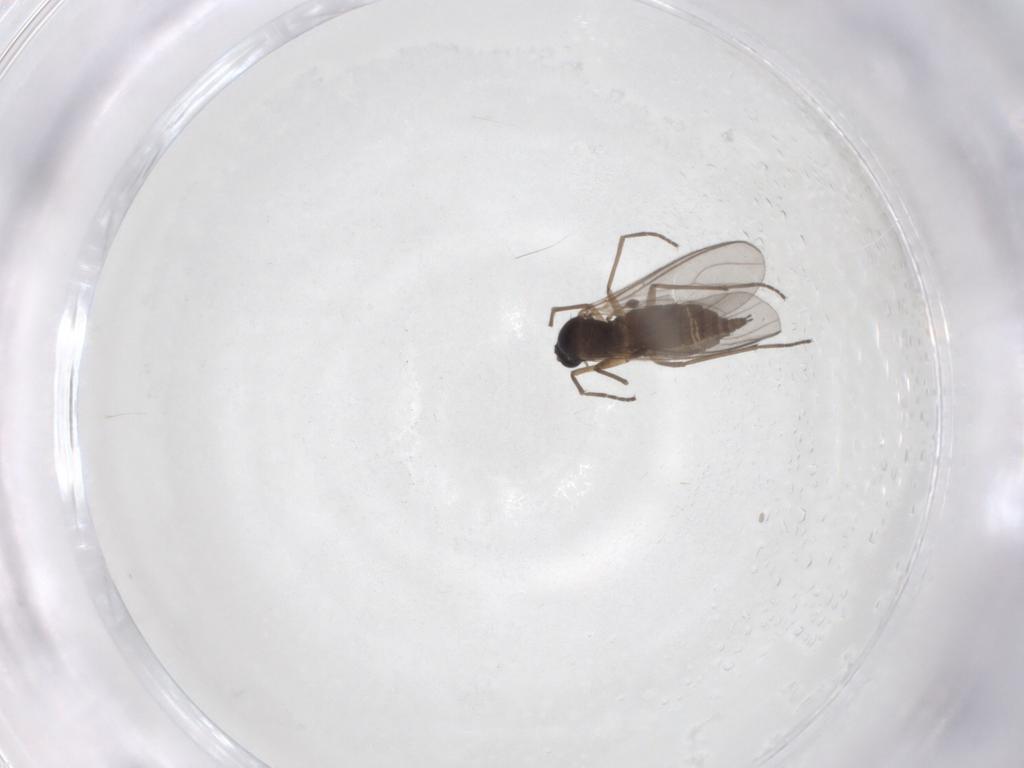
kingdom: Animalia
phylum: Arthropoda
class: Insecta
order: Diptera
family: Sciaridae
